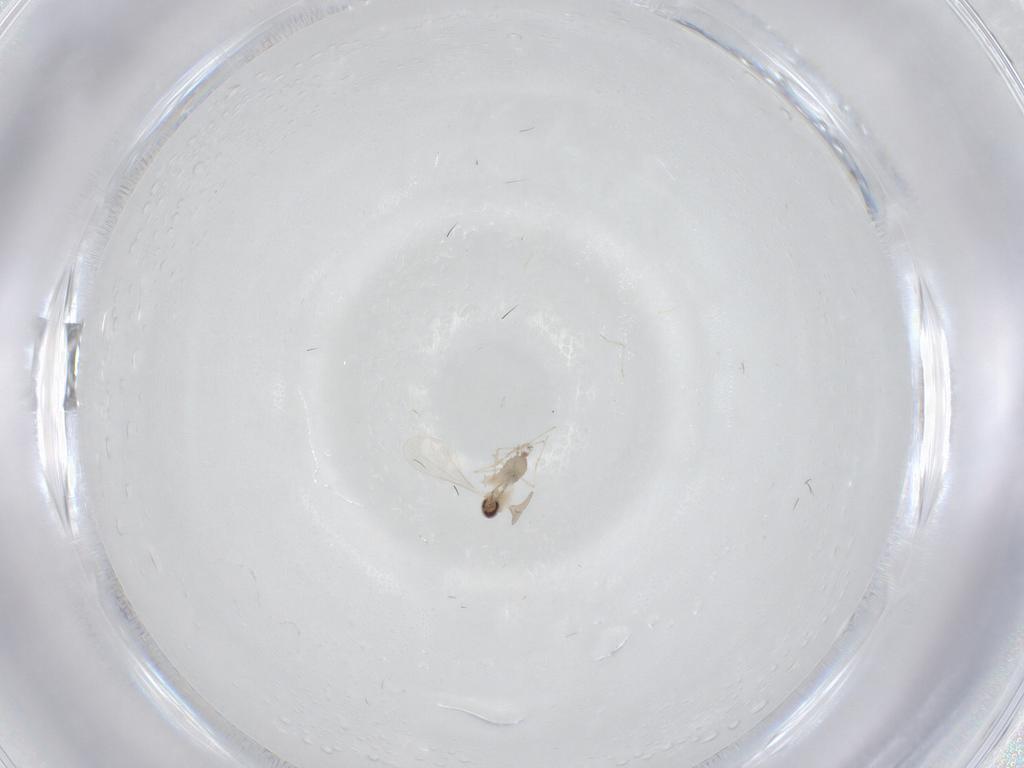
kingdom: Animalia
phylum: Arthropoda
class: Insecta
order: Diptera
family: Cecidomyiidae
